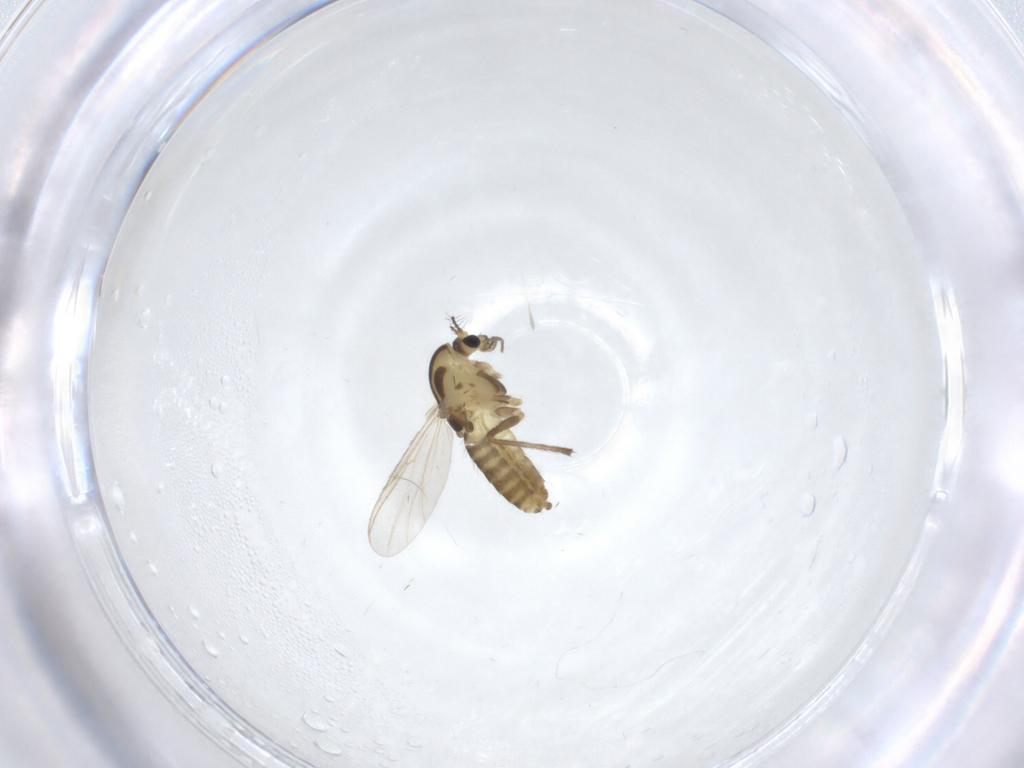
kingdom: Animalia
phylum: Arthropoda
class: Insecta
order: Diptera
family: Chironomidae
